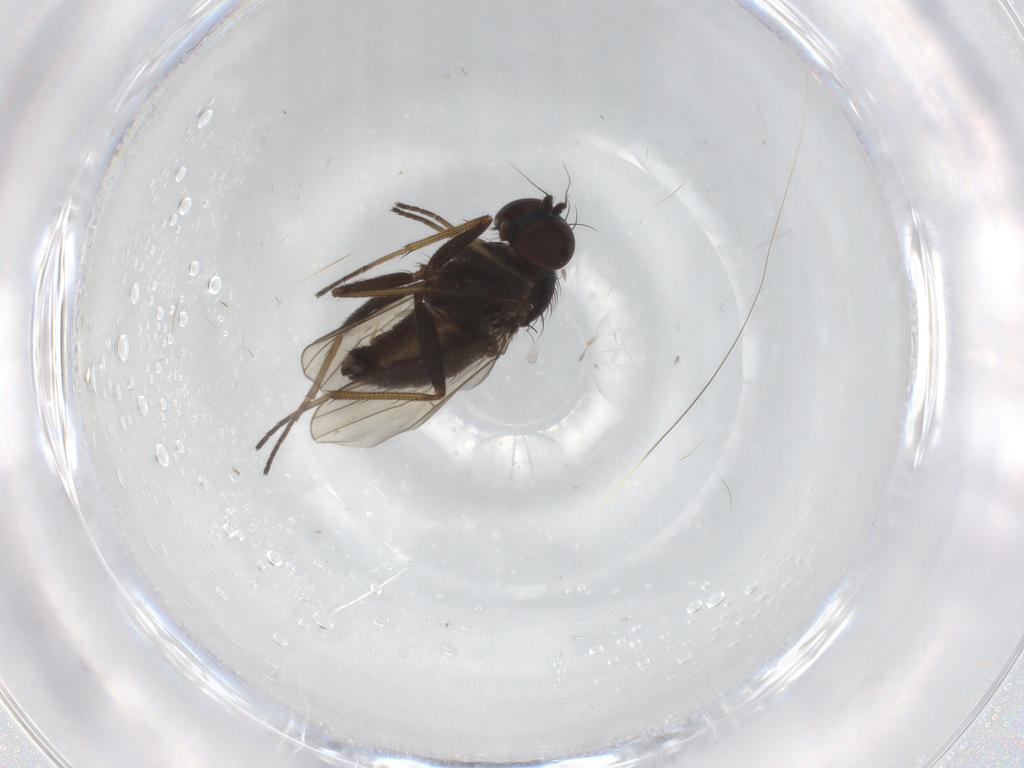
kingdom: Animalia
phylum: Arthropoda
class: Insecta
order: Diptera
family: Dolichopodidae
